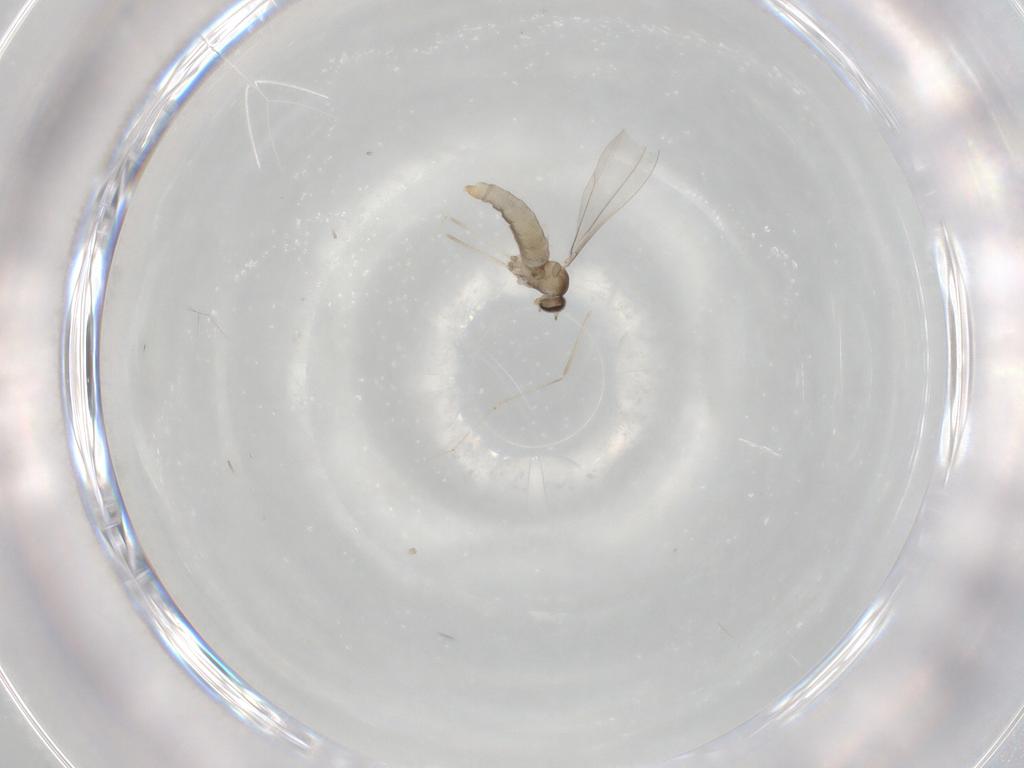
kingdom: Animalia
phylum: Arthropoda
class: Insecta
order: Diptera
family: Cecidomyiidae
